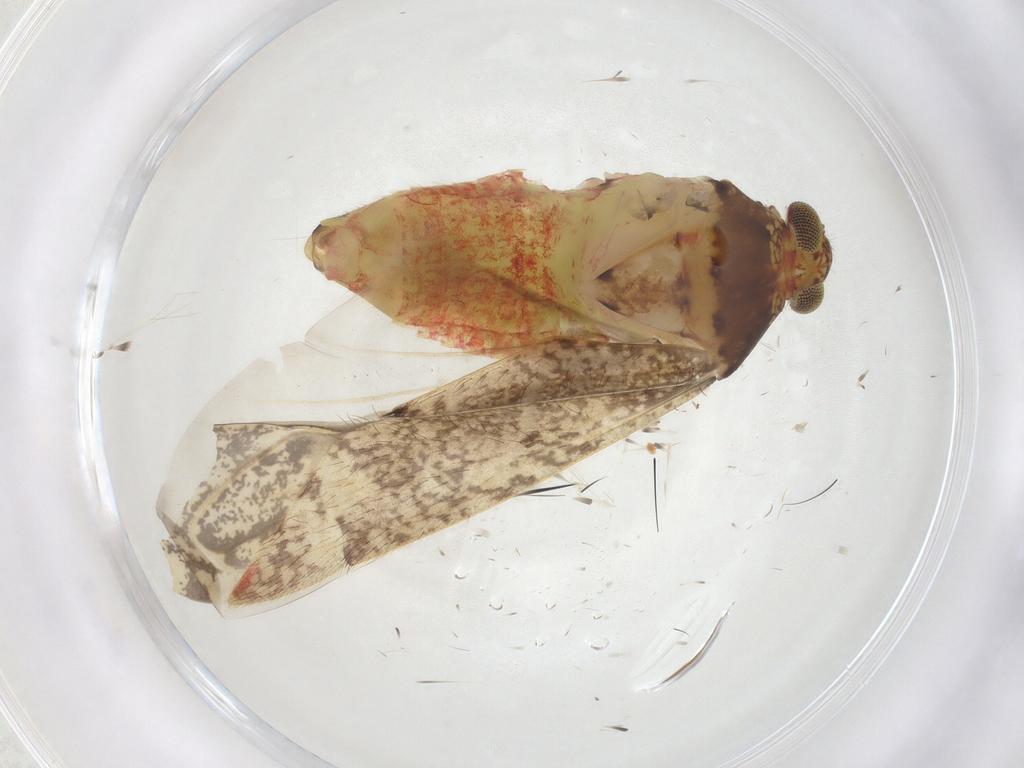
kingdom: Animalia
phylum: Arthropoda
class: Insecta
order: Hemiptera
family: Miridae
